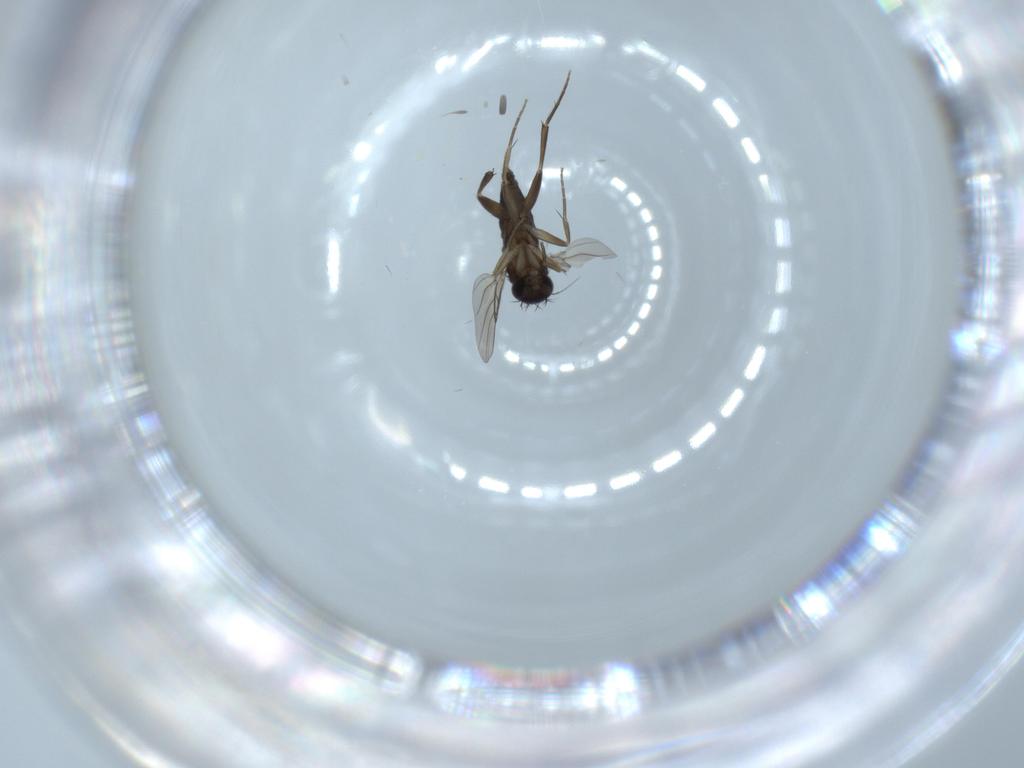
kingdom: Animalia
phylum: Arthropoda
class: Insecta
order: Diptera
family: Phoridae
